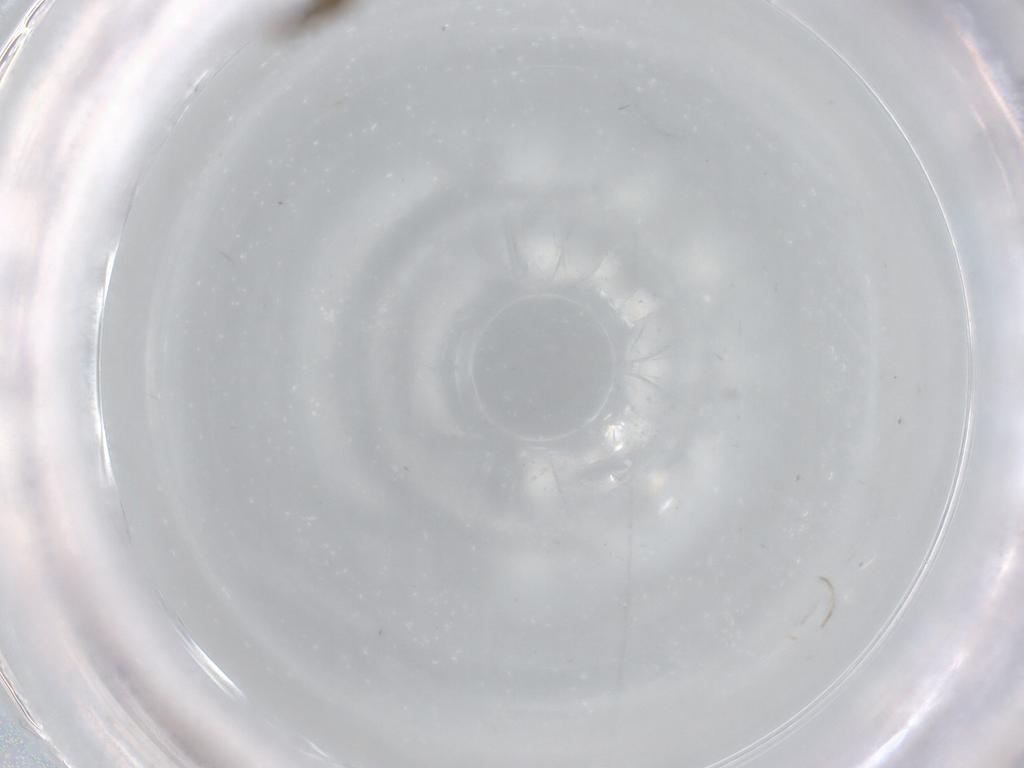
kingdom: Animalia
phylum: Arthropoda
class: Insecta
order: Diptera
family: Cecidomyiidae
